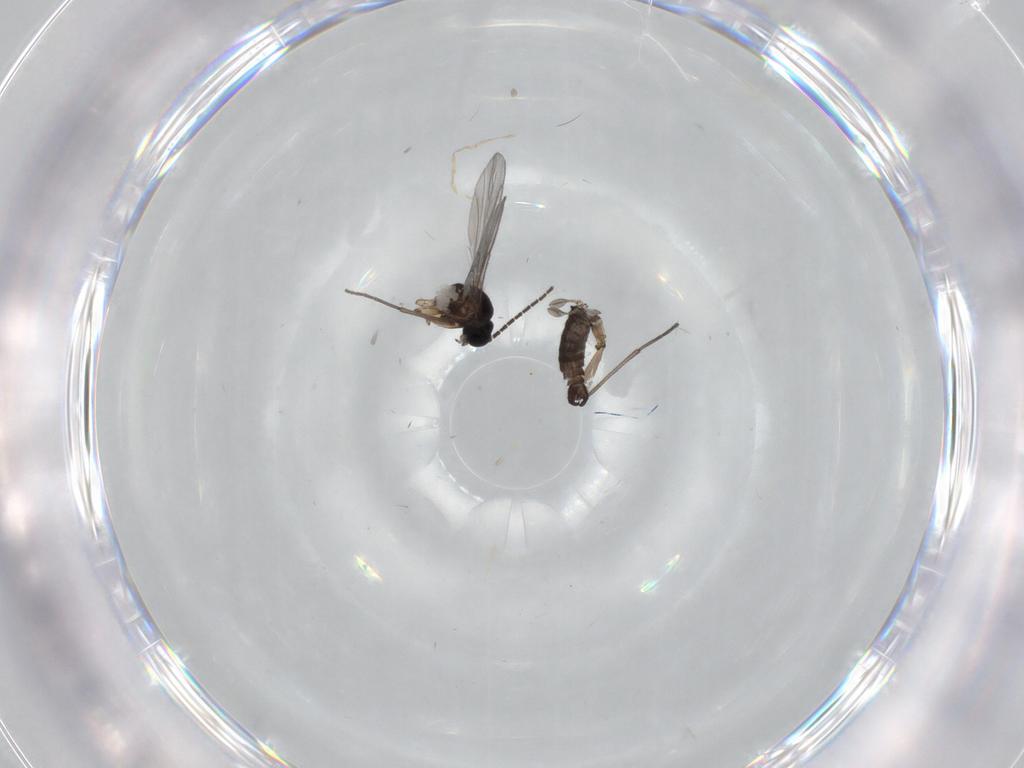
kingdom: Animalia
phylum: Arthropoda
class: Insecta
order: Diptera
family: Sciaridae
